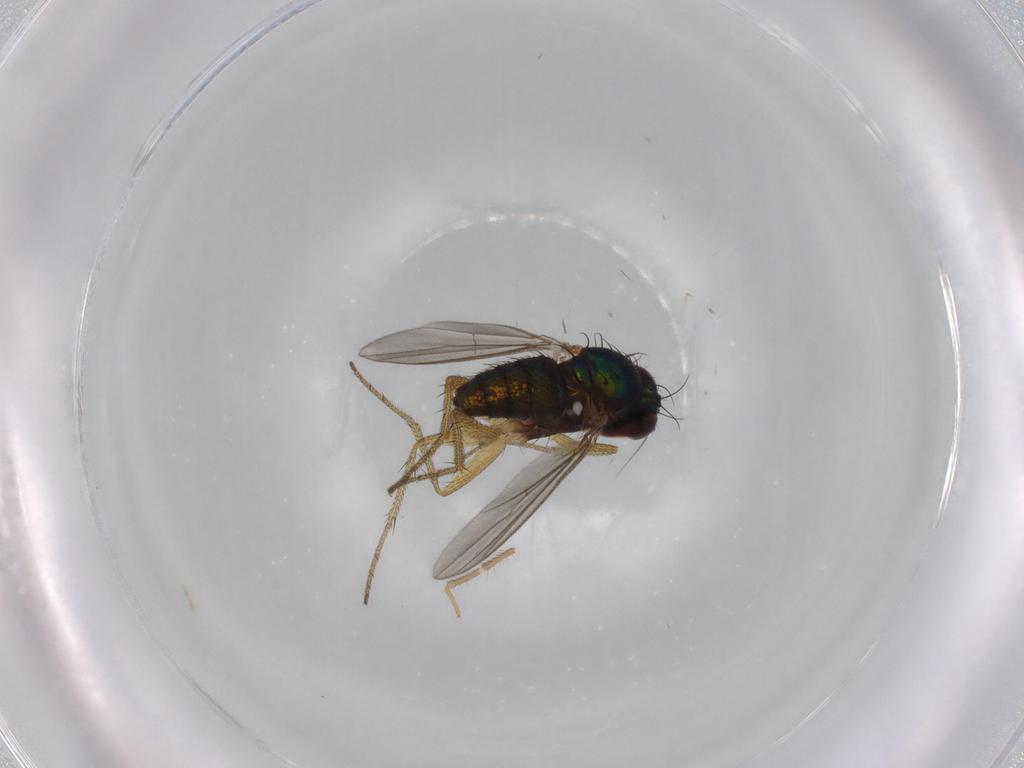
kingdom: Animalia
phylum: Arthropoda
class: Insecta
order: Diptera
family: Dolichopodidae
